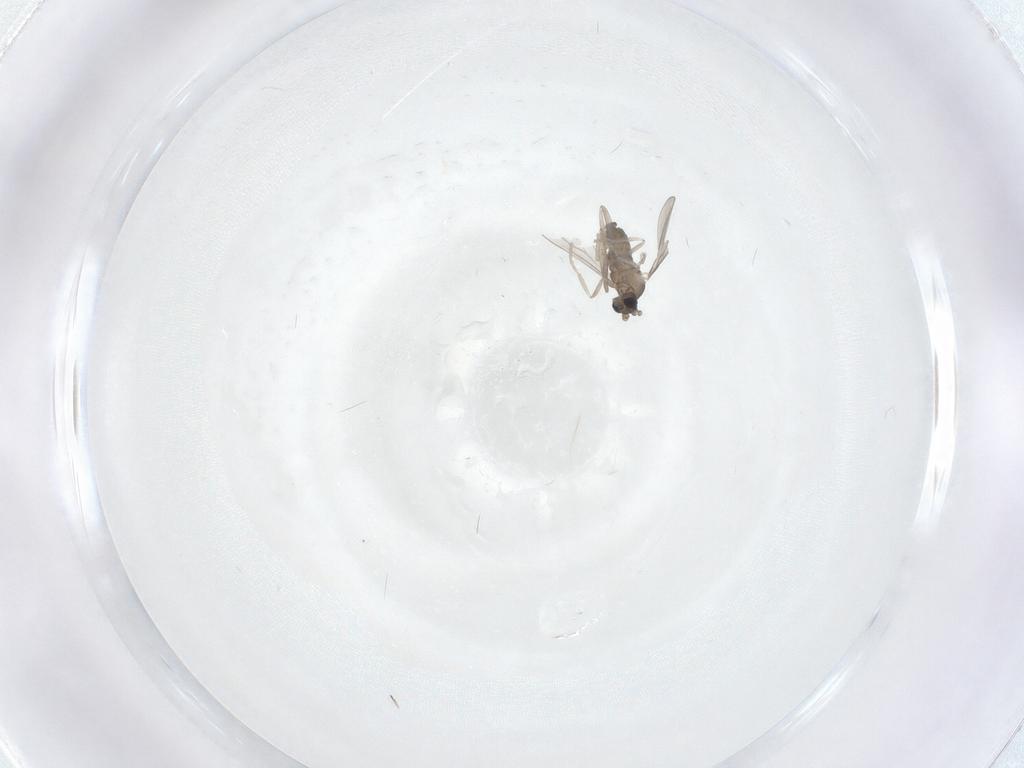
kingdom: Animalia
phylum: Arthropoda
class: Insecta
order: Diptera
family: Cecidomyiidae
